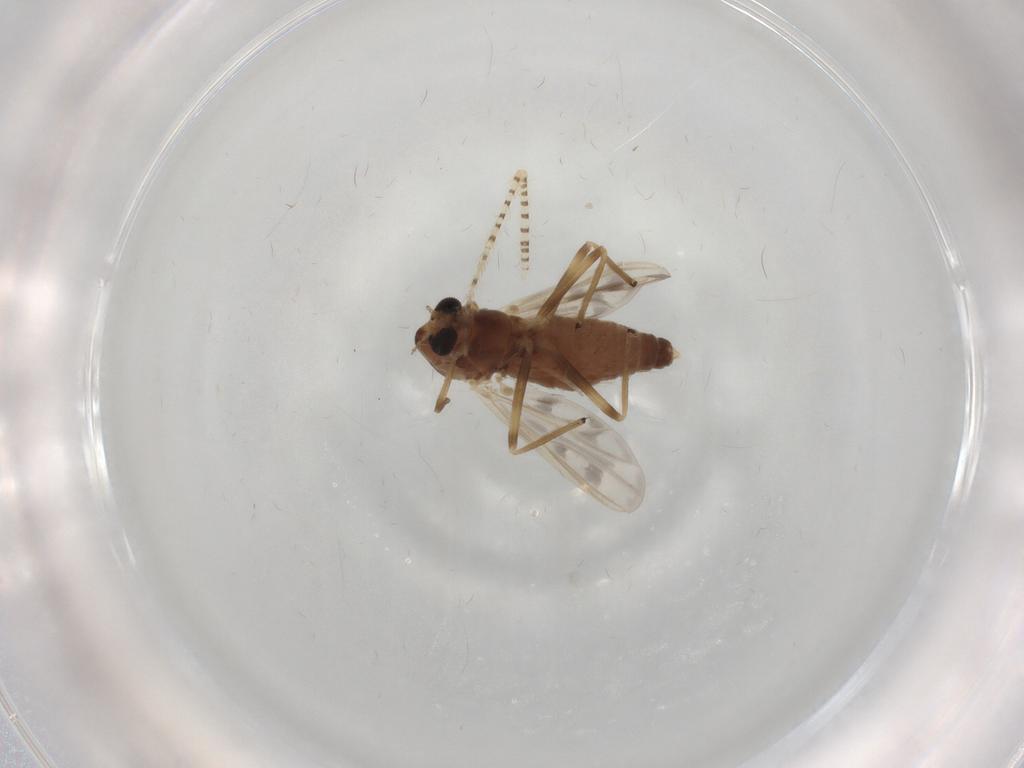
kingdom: Animalia
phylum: Arthropoda
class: Insecta
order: Diptera
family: Chironomidae
